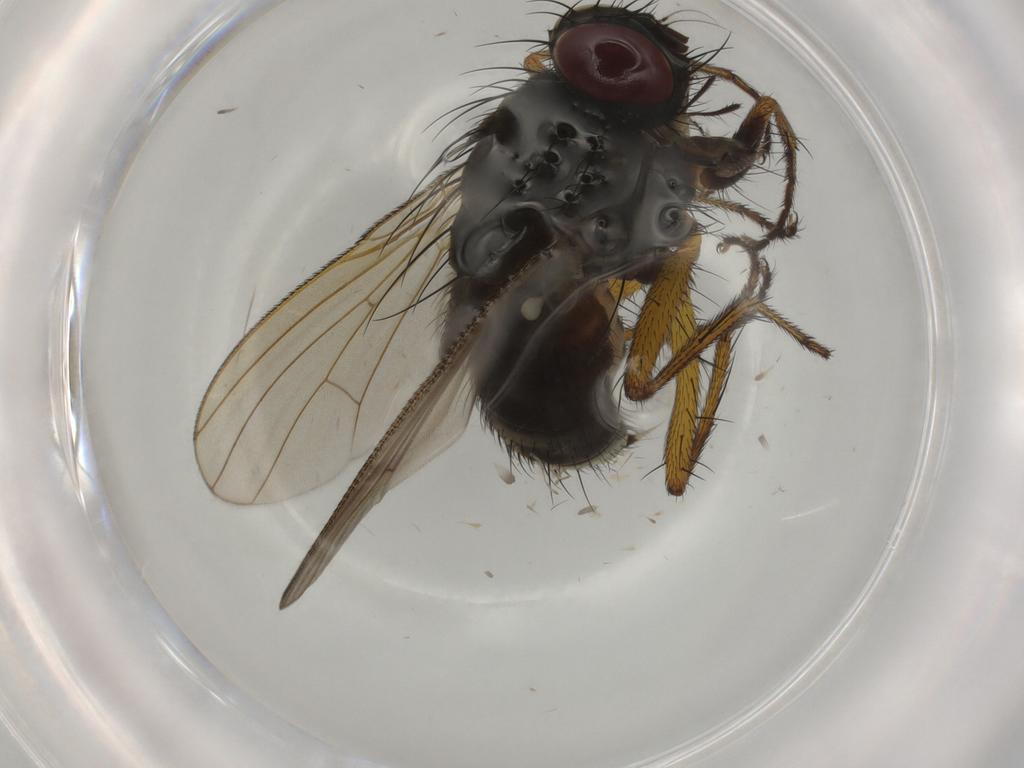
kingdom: Animalia
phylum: Arthropoda
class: Insecta
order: Diptera
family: Muscidae
